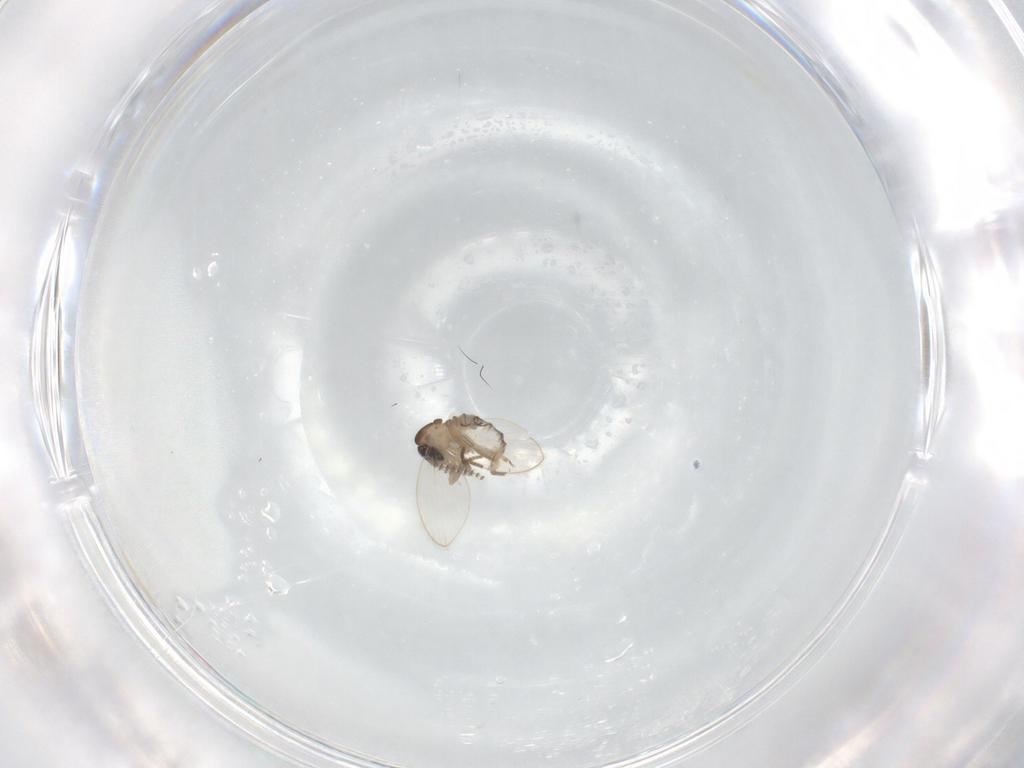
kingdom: Animalia
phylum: Arthropoda
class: Insecta
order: Diptera
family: Psychodidae
